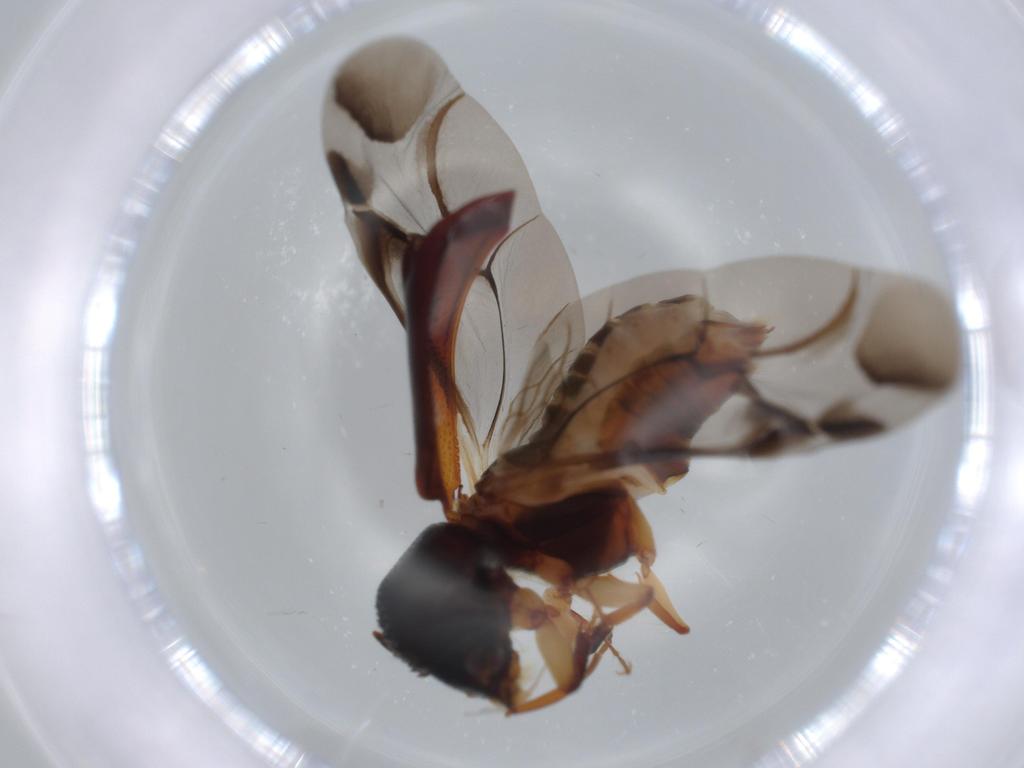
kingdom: Animalia
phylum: Arthropoda
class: Insecta
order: Coleoptera
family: Bostrichidae
